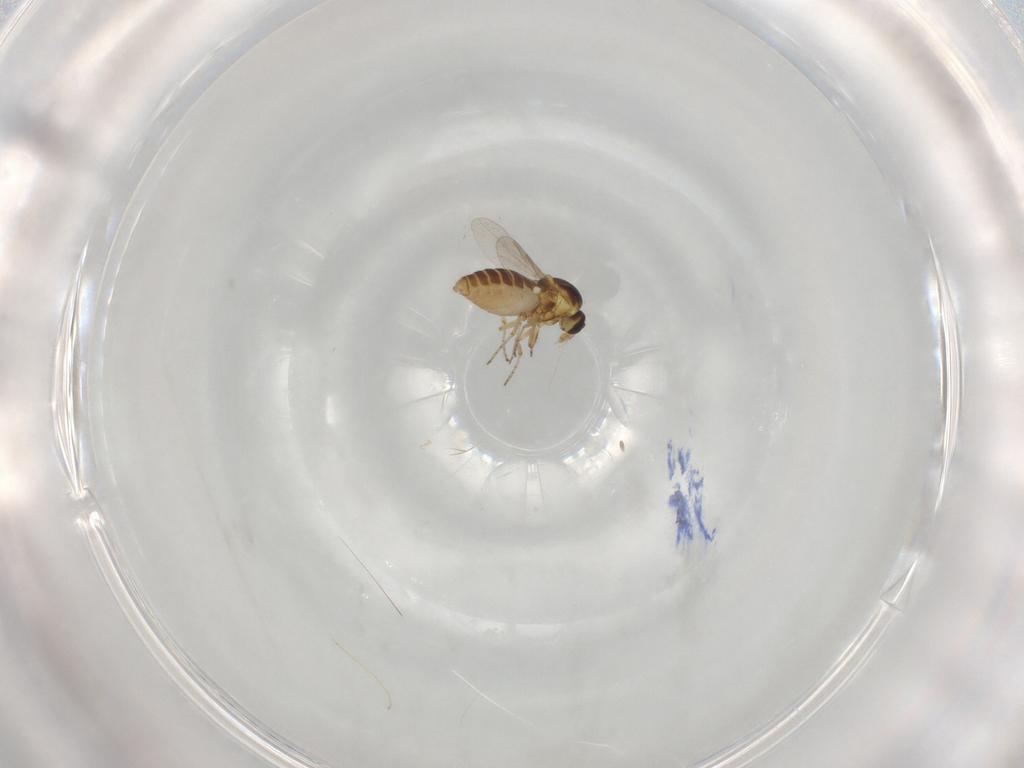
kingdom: Animalia
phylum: Arthropoda
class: Insecta
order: Diptera
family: Ceratopogonidae
